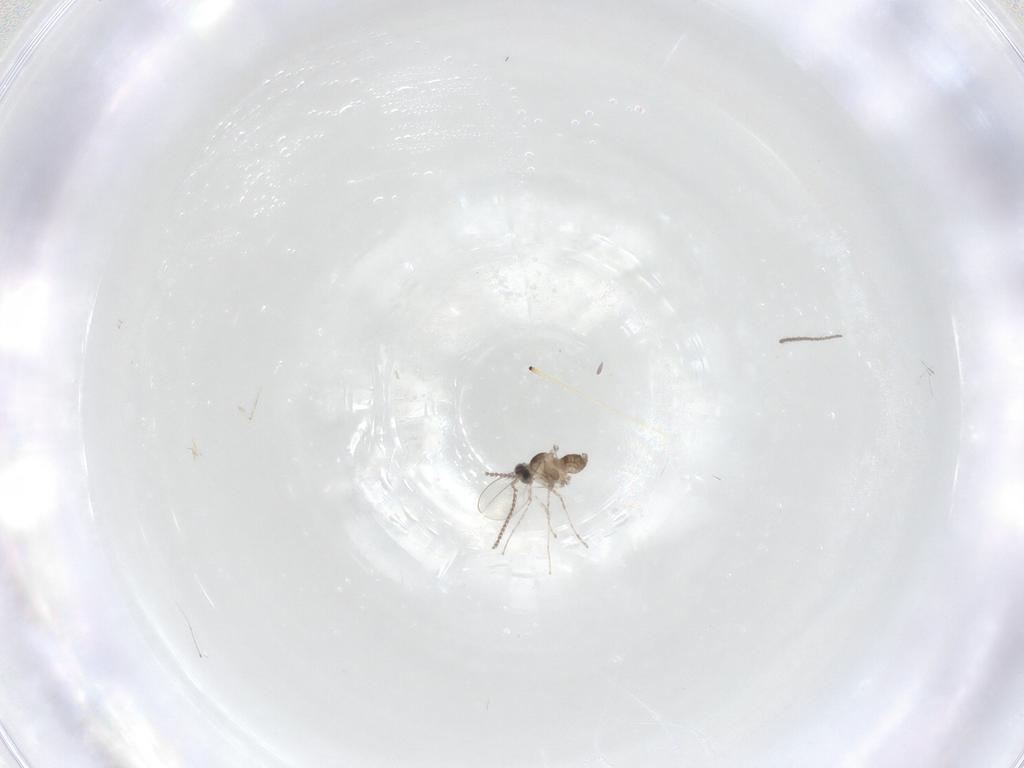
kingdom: Animalia
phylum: Arthropoda
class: Insecta
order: Diptera
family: Cecidomyiidae
